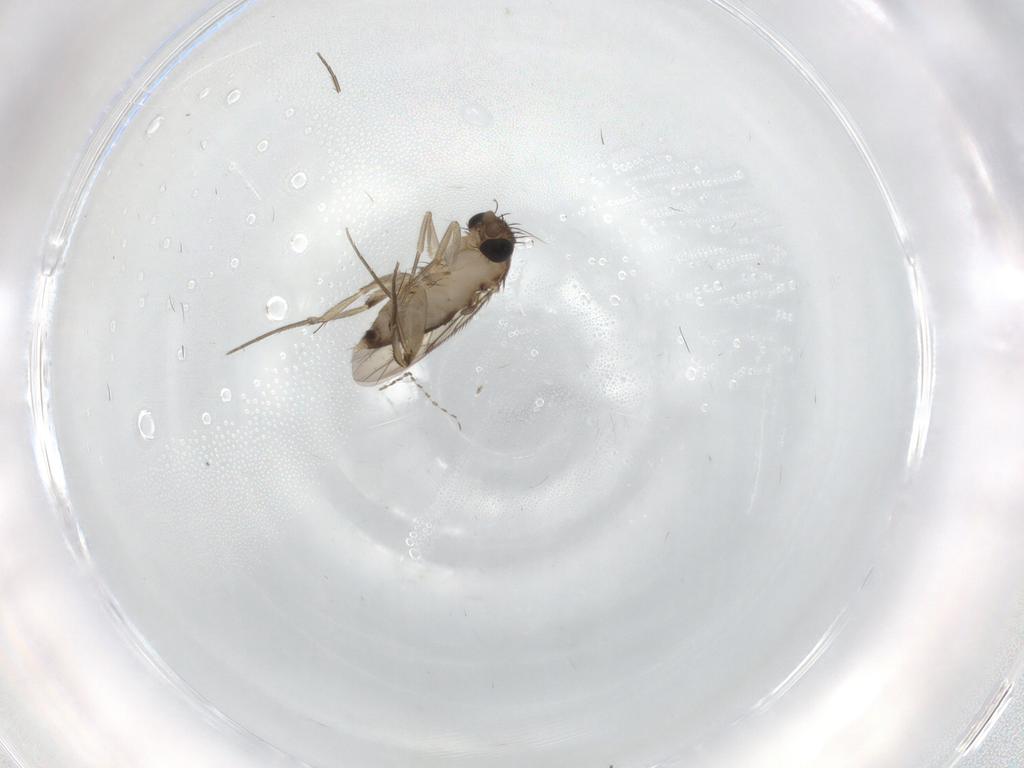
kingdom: Animalia
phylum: Arthropoda
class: Insecta
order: Diptera
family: Phoridae
